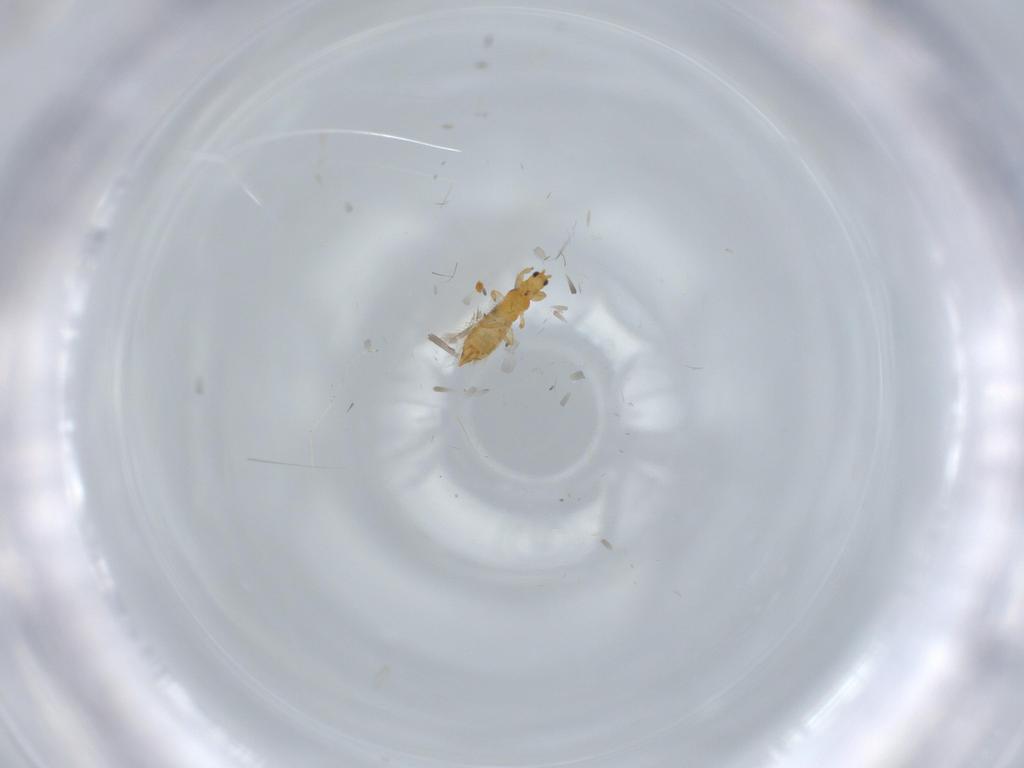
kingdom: Animalia
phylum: Arthropoda
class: Insecta
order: Thysanoptera
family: Thripidae
